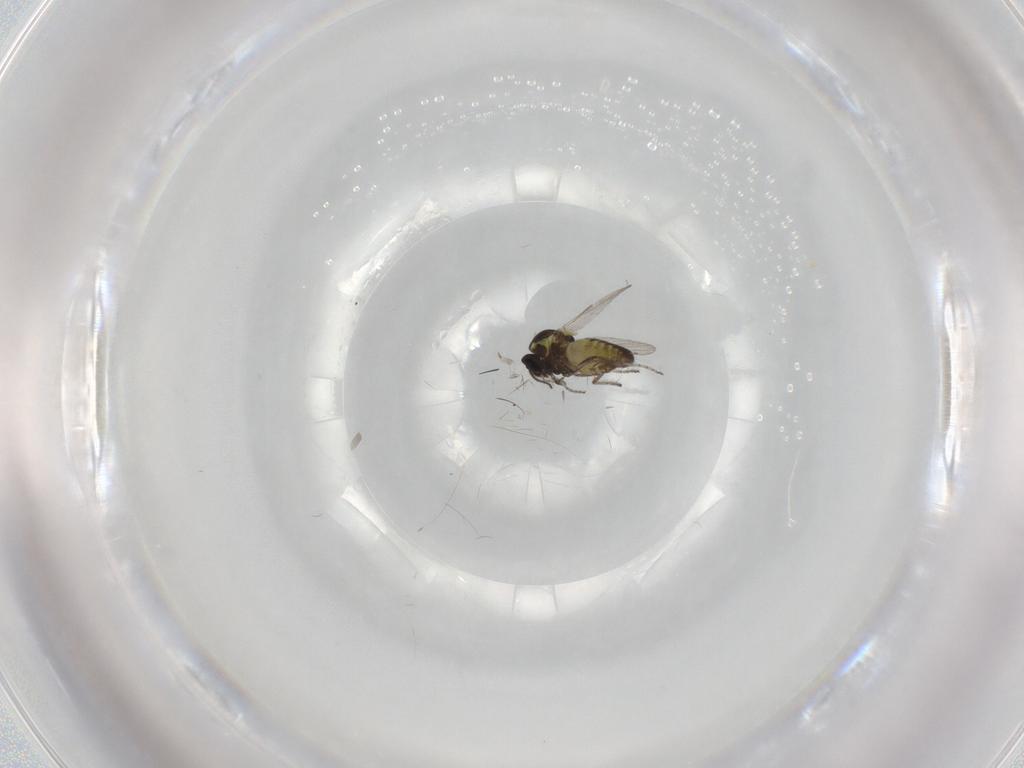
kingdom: Animalia
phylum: Arthropoda
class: Insecta
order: Diptera
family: Ceratopogonidae
